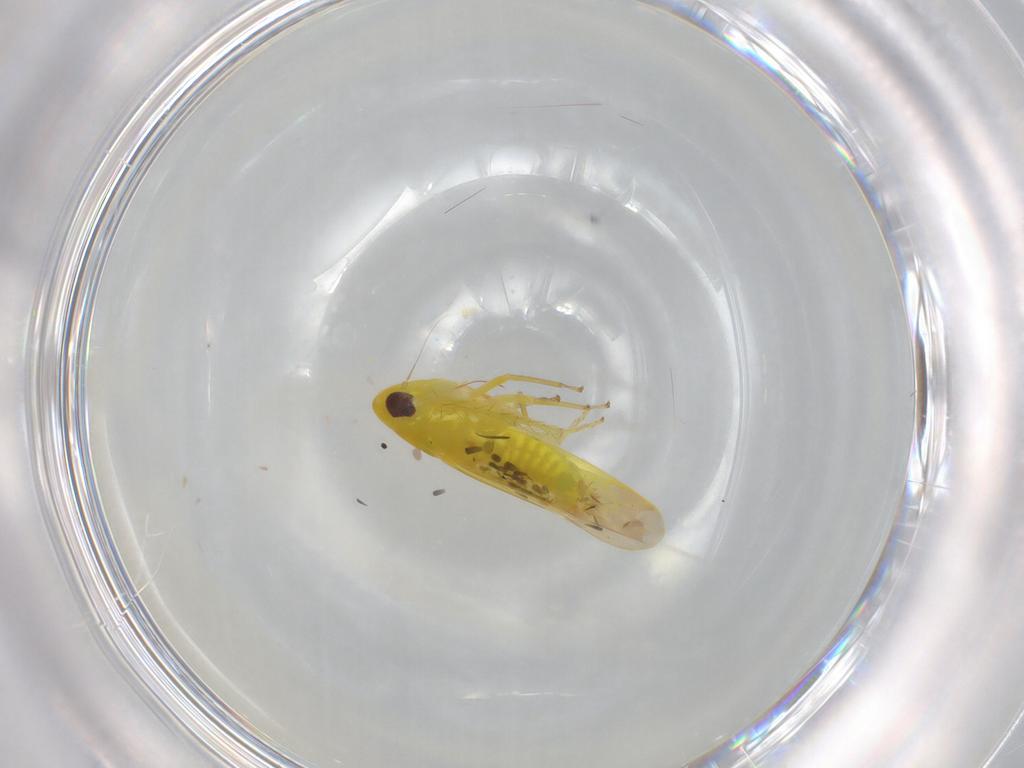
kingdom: Animalia
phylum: Arthropoda
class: Insecta
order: Hemiptera
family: Cicadellidae
